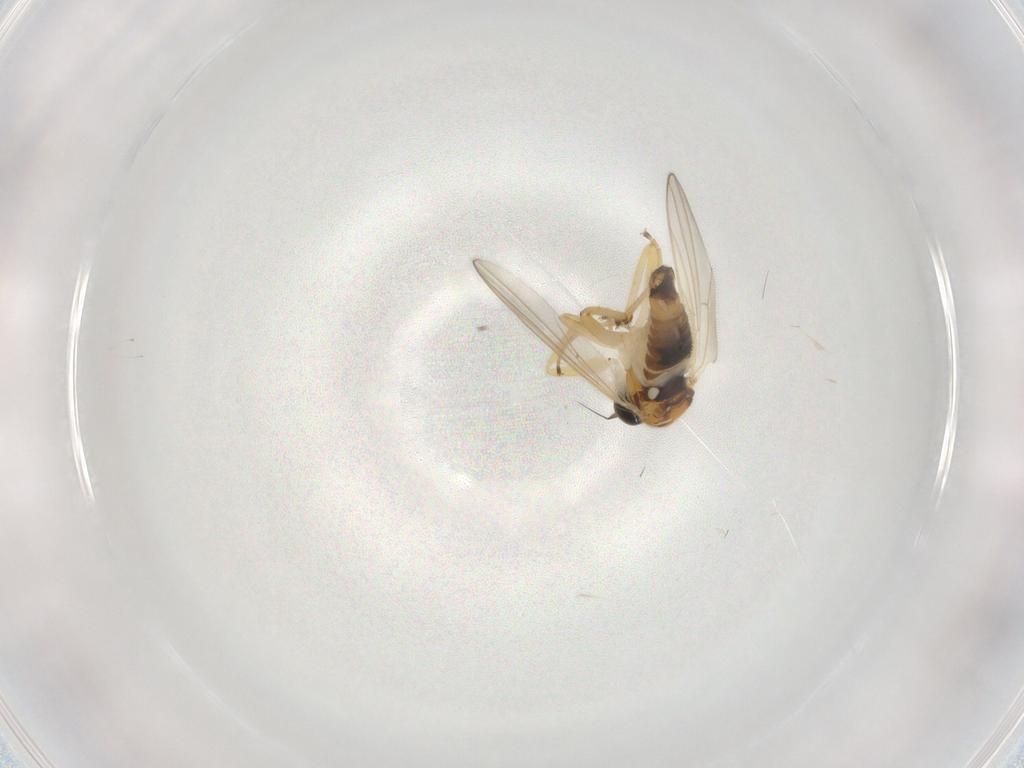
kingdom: Animalia
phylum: Arthropoda
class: Insecta
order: Diptera
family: Hybotidae
